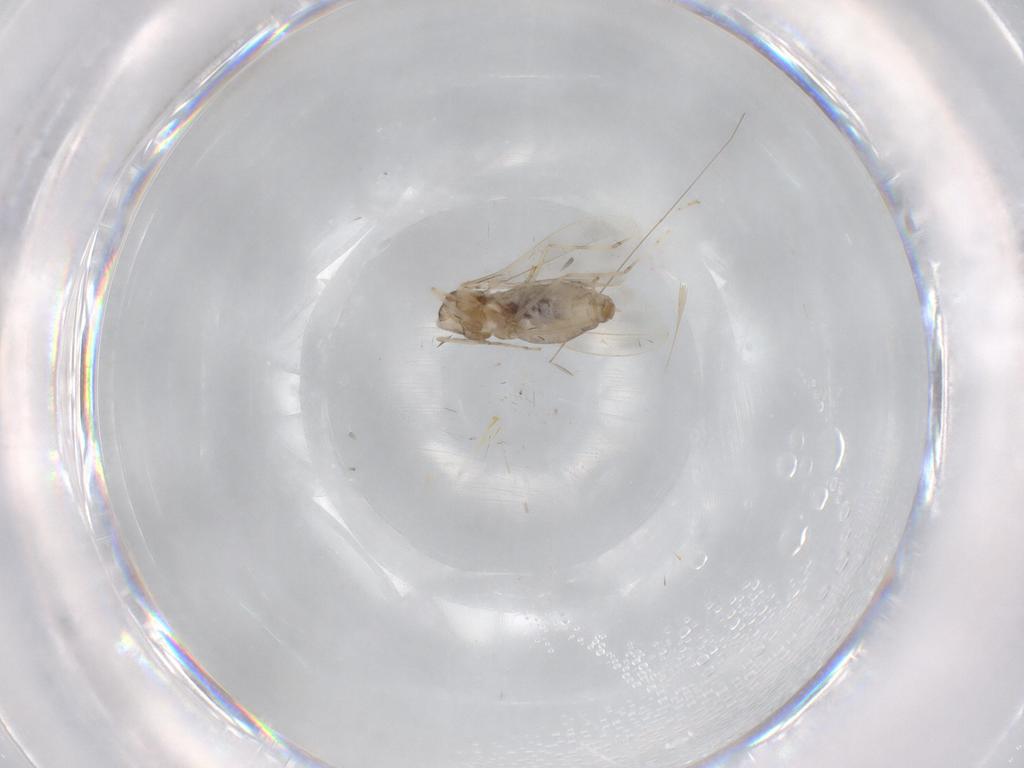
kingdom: Animalia
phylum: Arthropoda
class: Insecta
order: Diptera
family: Cecidomyiidae
